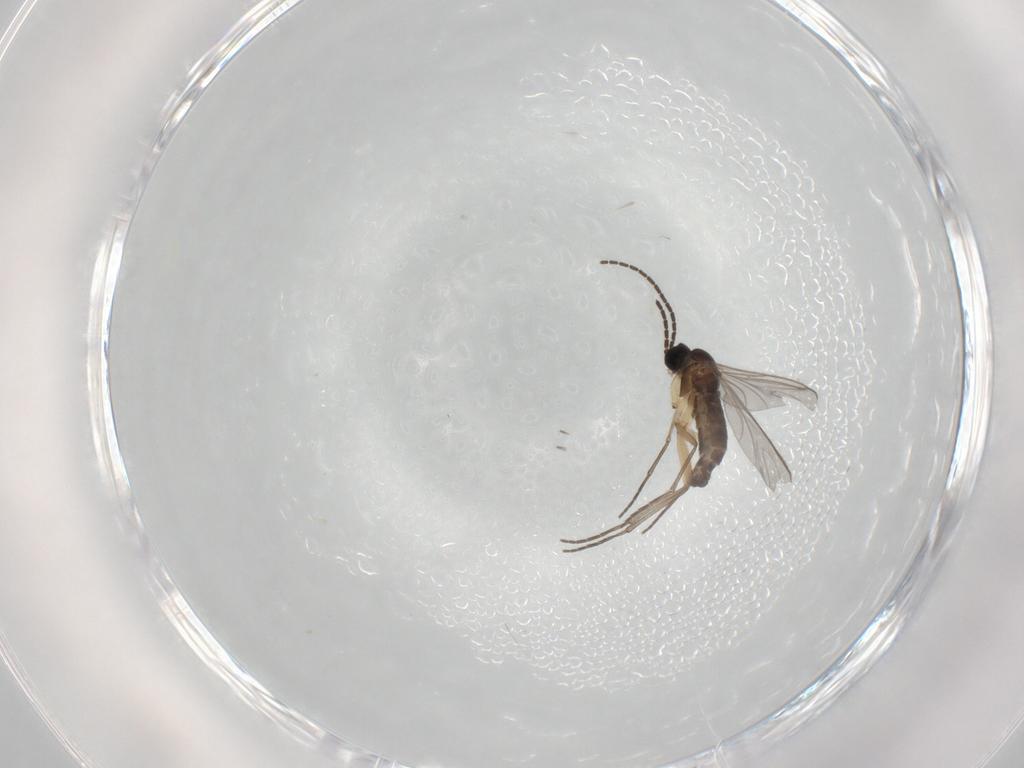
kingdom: Animalia
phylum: Arthropoda
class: Insecta
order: Diptera
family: Sciaridae
